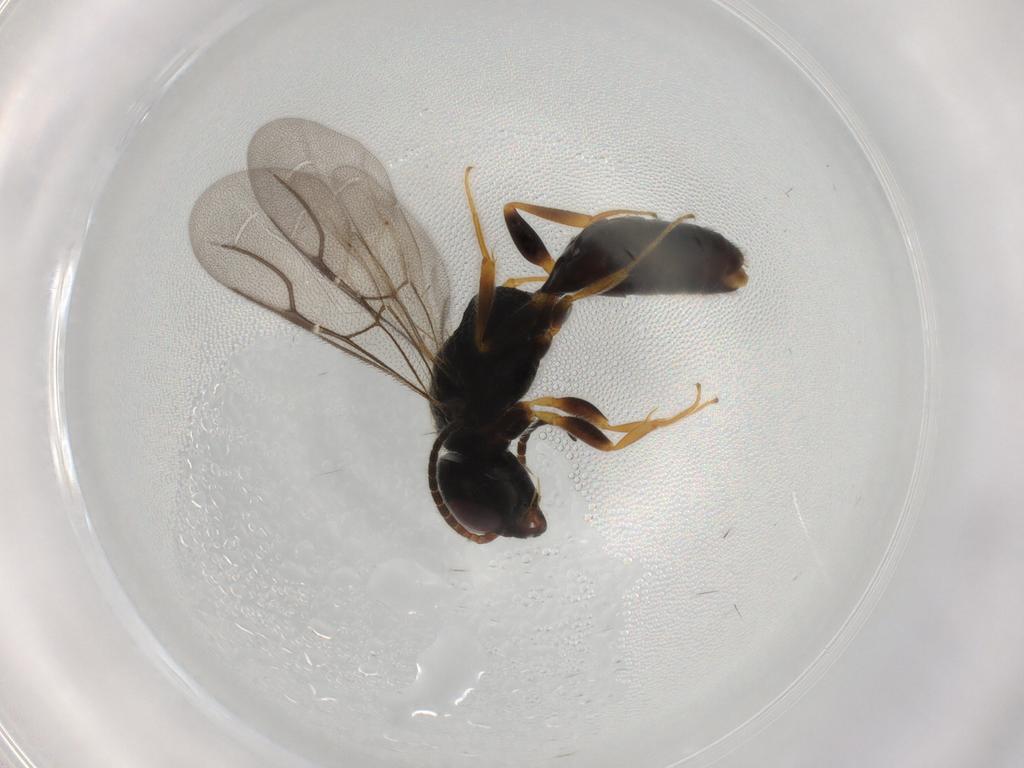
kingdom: Animalia
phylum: Arthropoda
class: Insecta
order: Hymenoptera
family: Bethylidae
